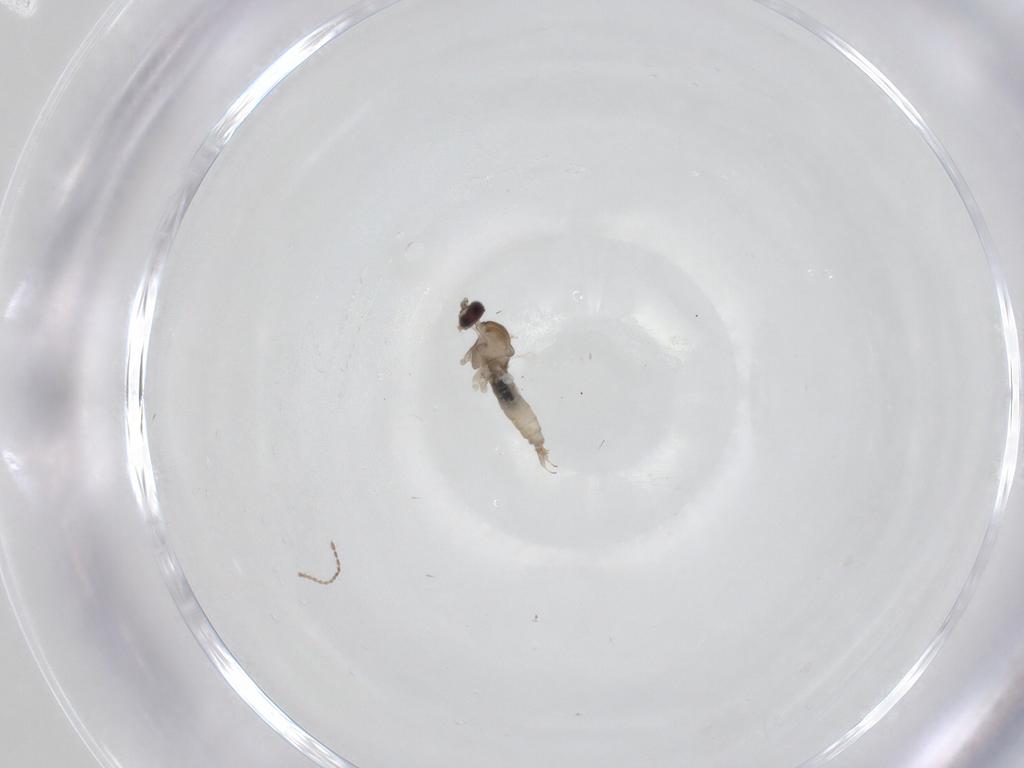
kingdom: Animalia
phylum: Arthropoda
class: Insecta
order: Diptera
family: Cecidomyiidae
